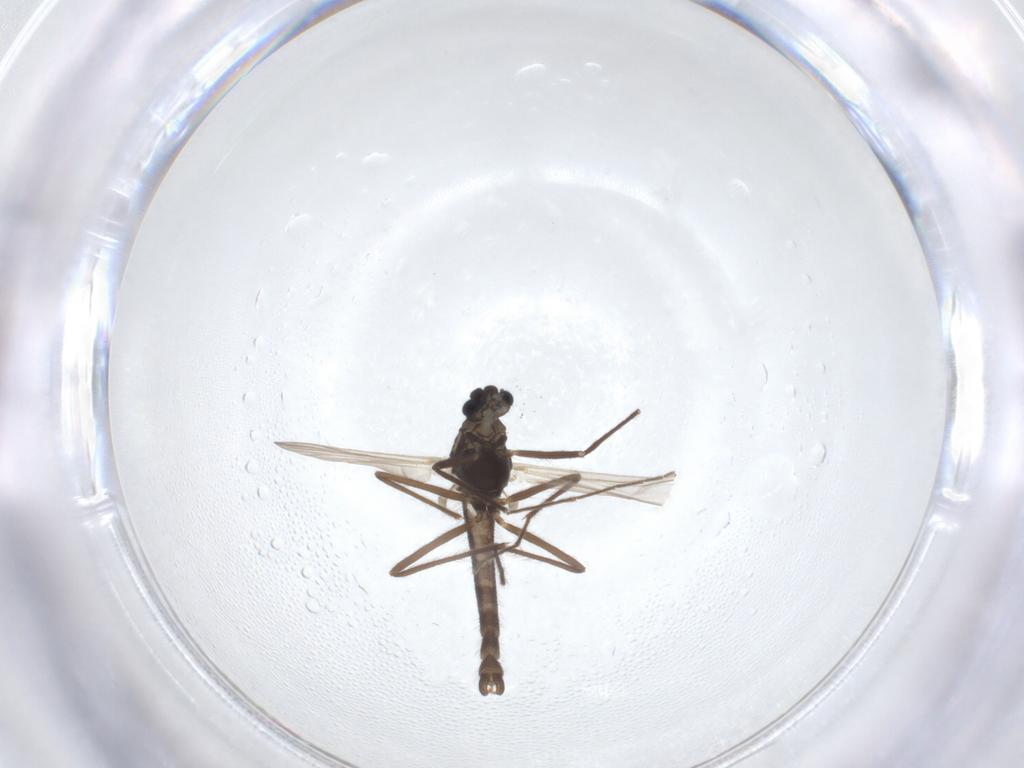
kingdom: Animalia
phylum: Arthropoda
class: Insecta
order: Diptera
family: Chironomidae
